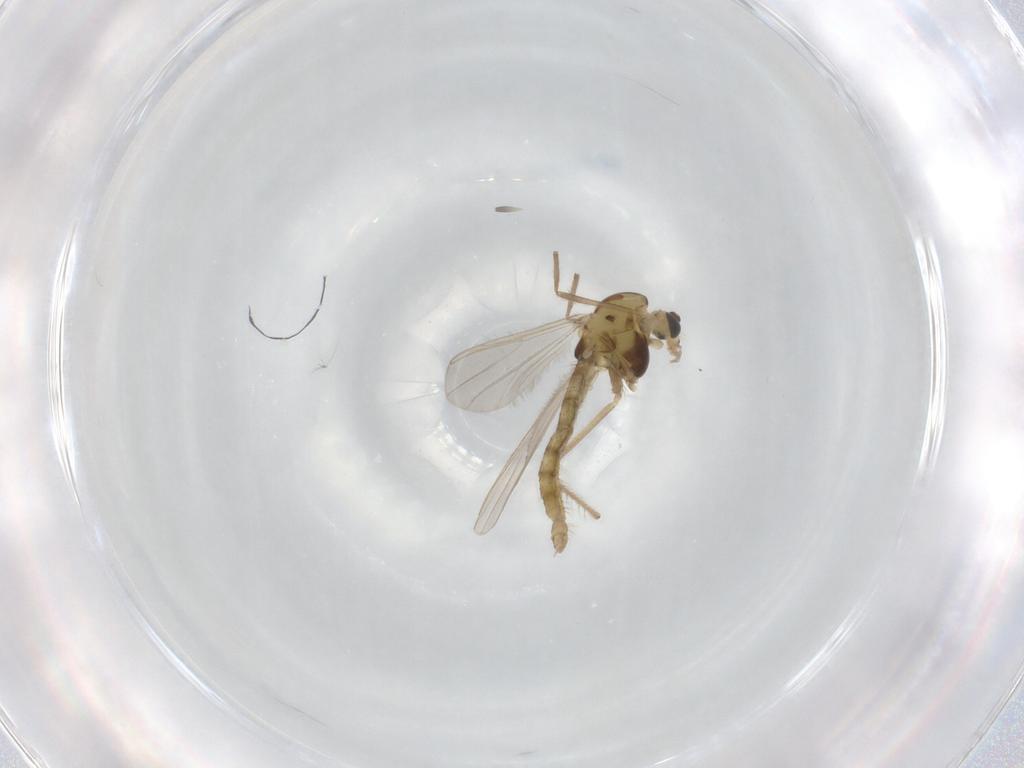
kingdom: Animalia
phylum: Arthropoda
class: Insecta
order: Diptera
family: Chironomidae
